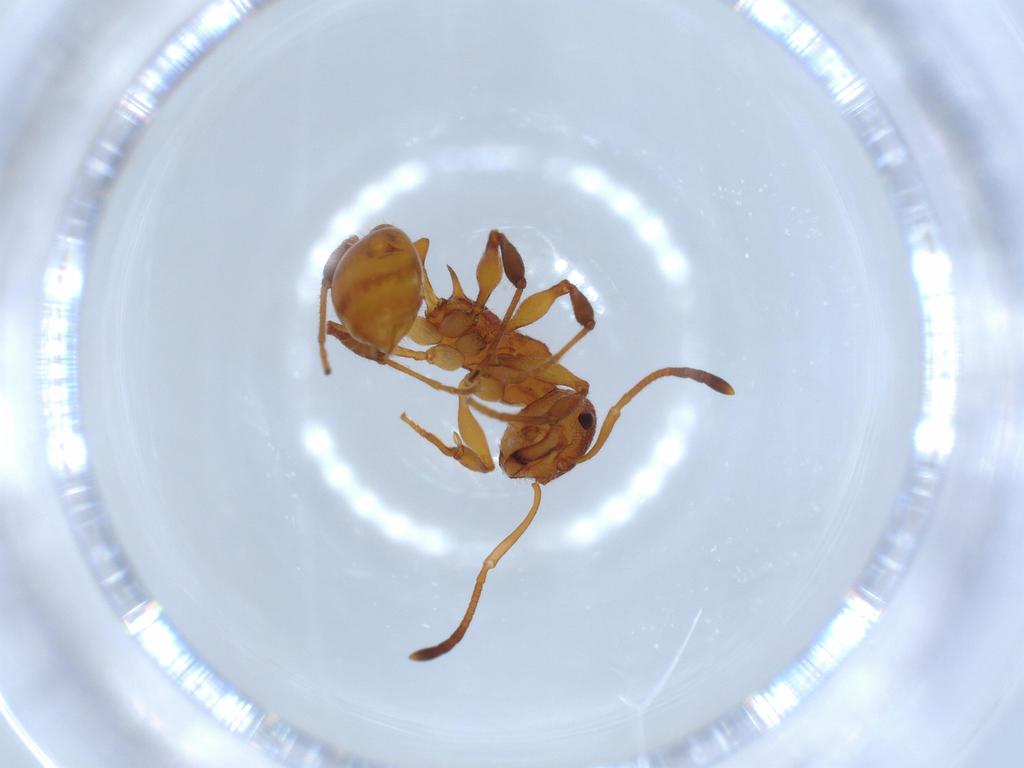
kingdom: Animalia
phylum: Arthropoda
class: Insecta
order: Hymenoptera
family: Formicidae
